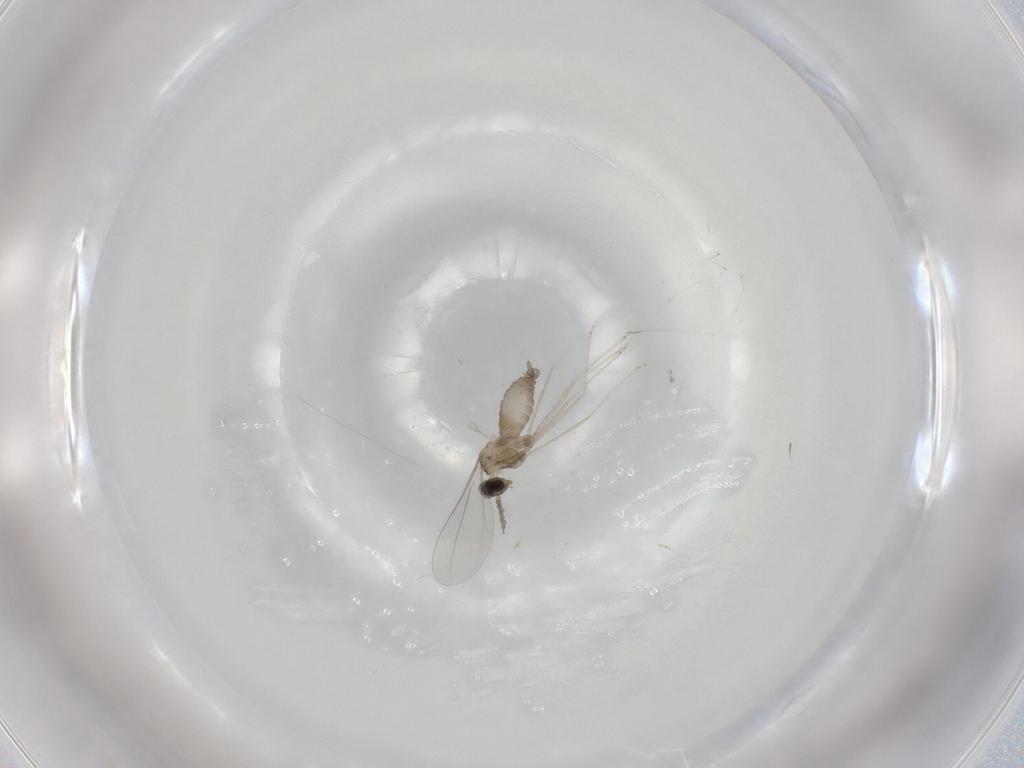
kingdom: Animalia
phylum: Arthropoda
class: Insecta
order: Diptera
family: Cecidomyiidae
